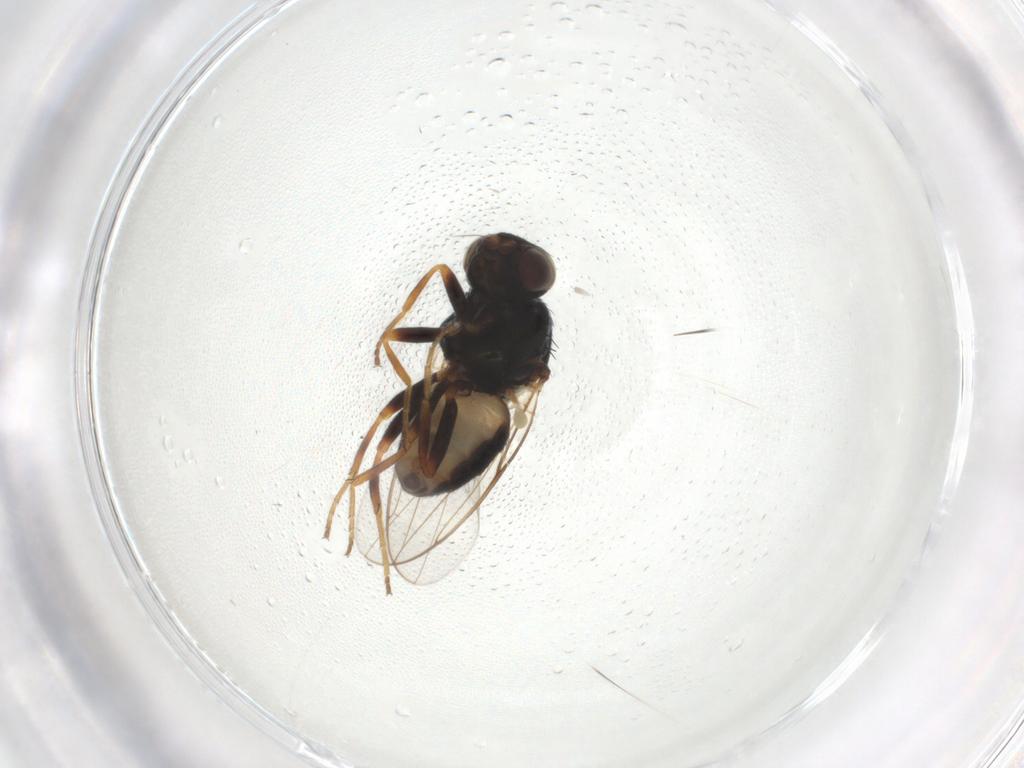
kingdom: Animalia
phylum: Arthropoda
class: Insecta
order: Diptera
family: Chloropidae
